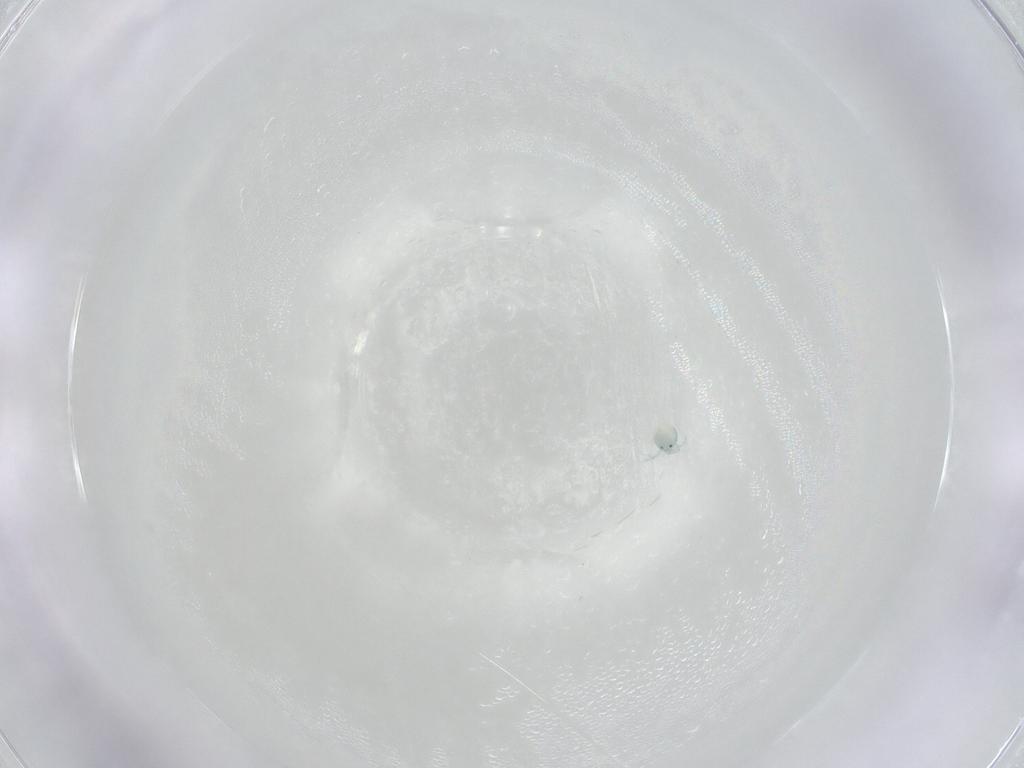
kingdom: Animalia
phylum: Arthropoda
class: Arachnida
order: Trombidiformes
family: Arrenuridae
